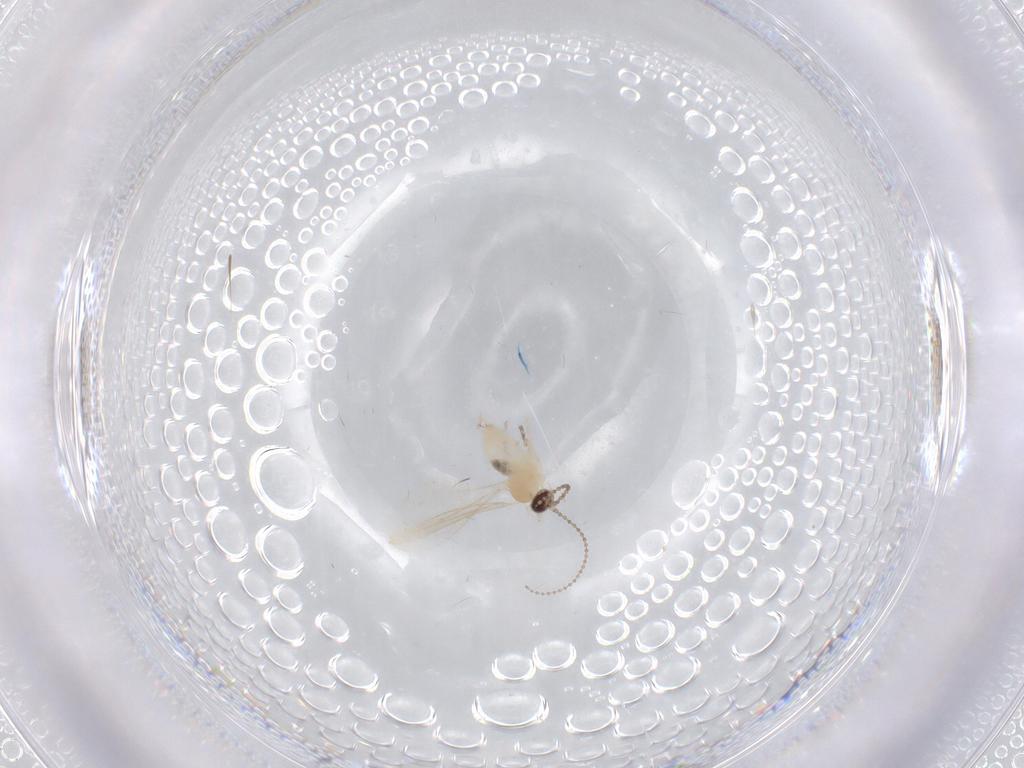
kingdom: Animalia
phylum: Arthropoda
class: Insecta
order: Diptera
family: Cecidomyiidae
